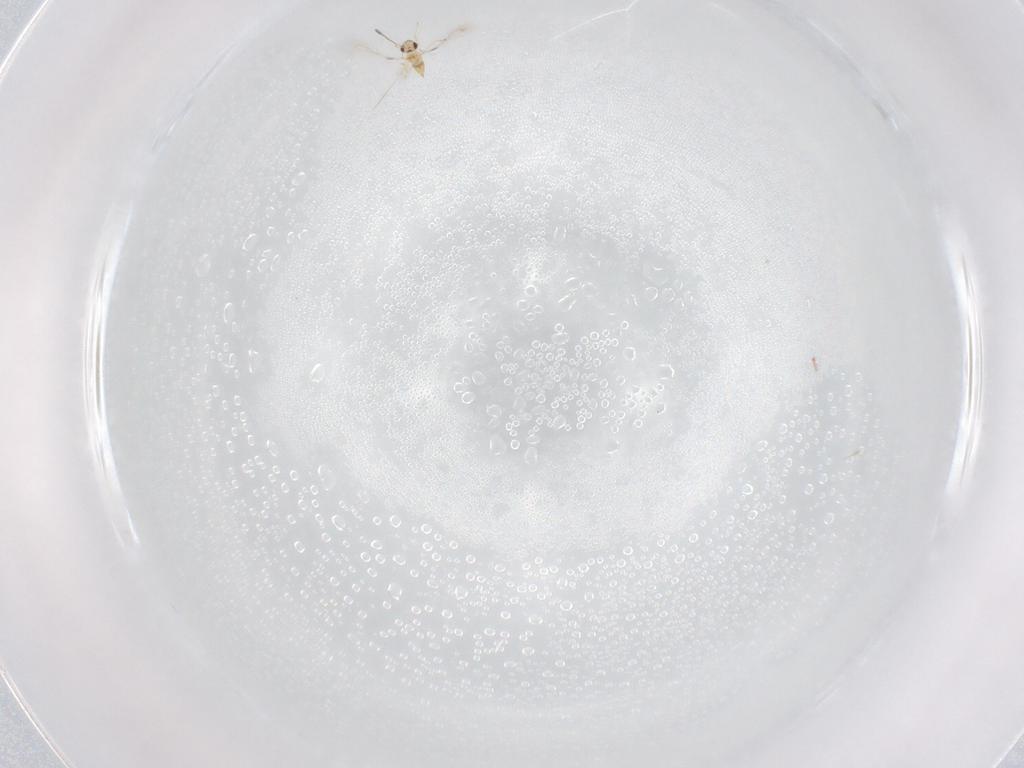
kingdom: Animalia
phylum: Arthropoda
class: Insecta
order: Hymenoptera
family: Mymaridae
